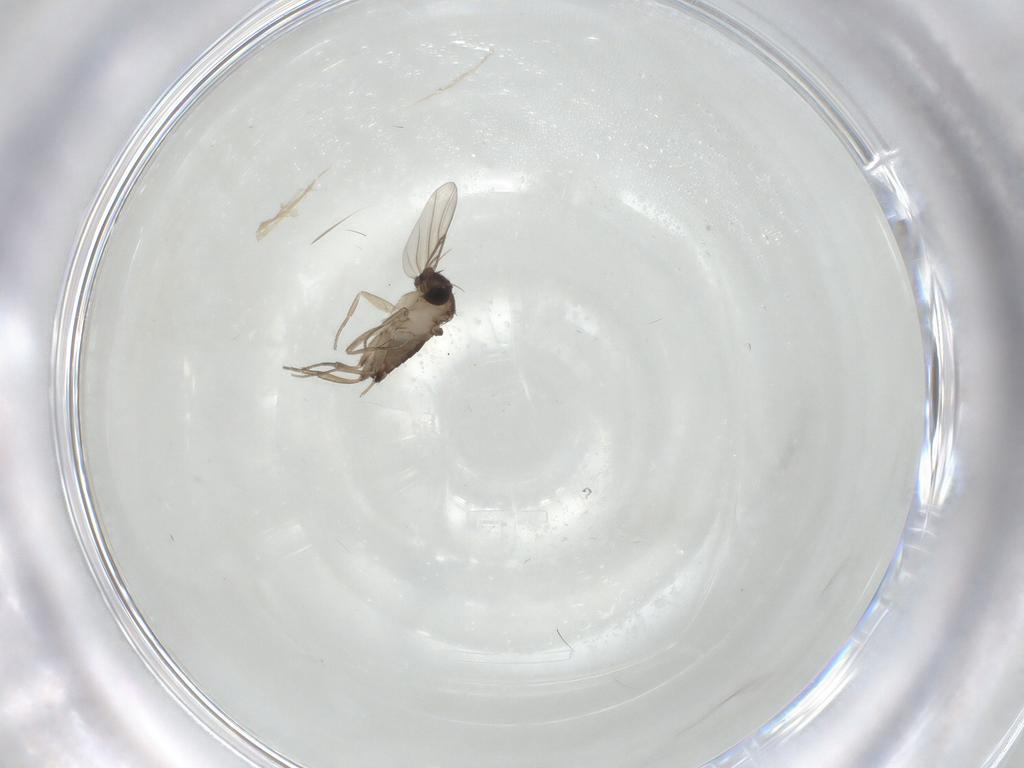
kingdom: Animalia
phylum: Arthropoda
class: Insecta
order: Diptera
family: Phoridae
